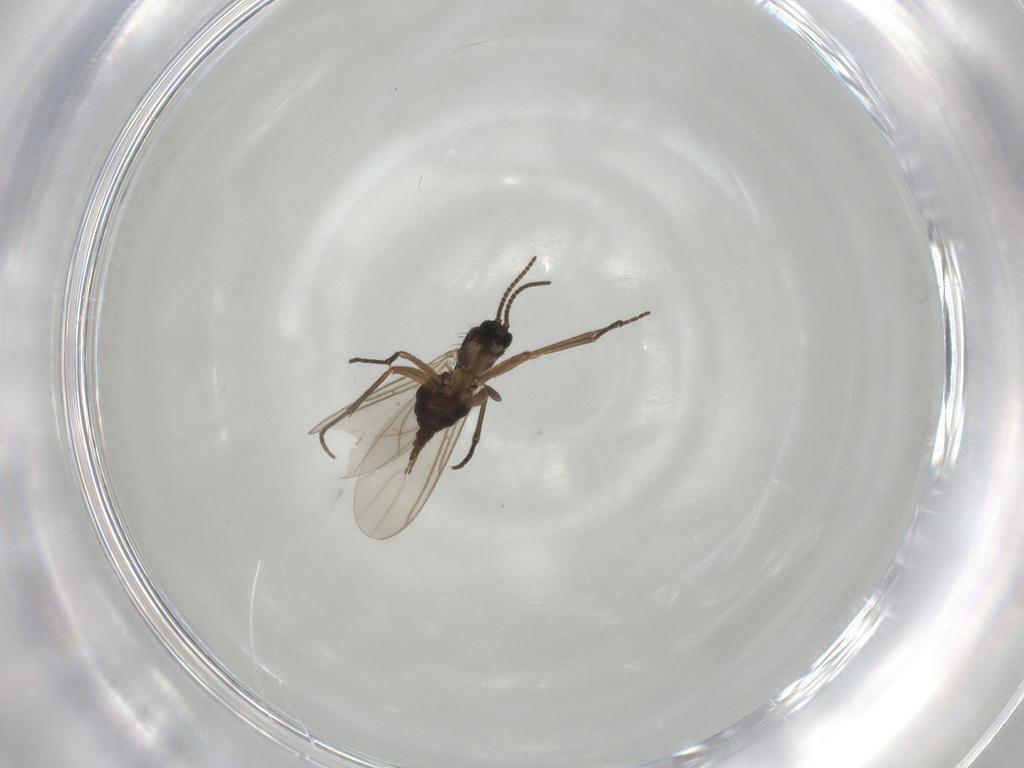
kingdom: Animalia
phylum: Arthropoda
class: Insecta
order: Diptera
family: Sciaridae
